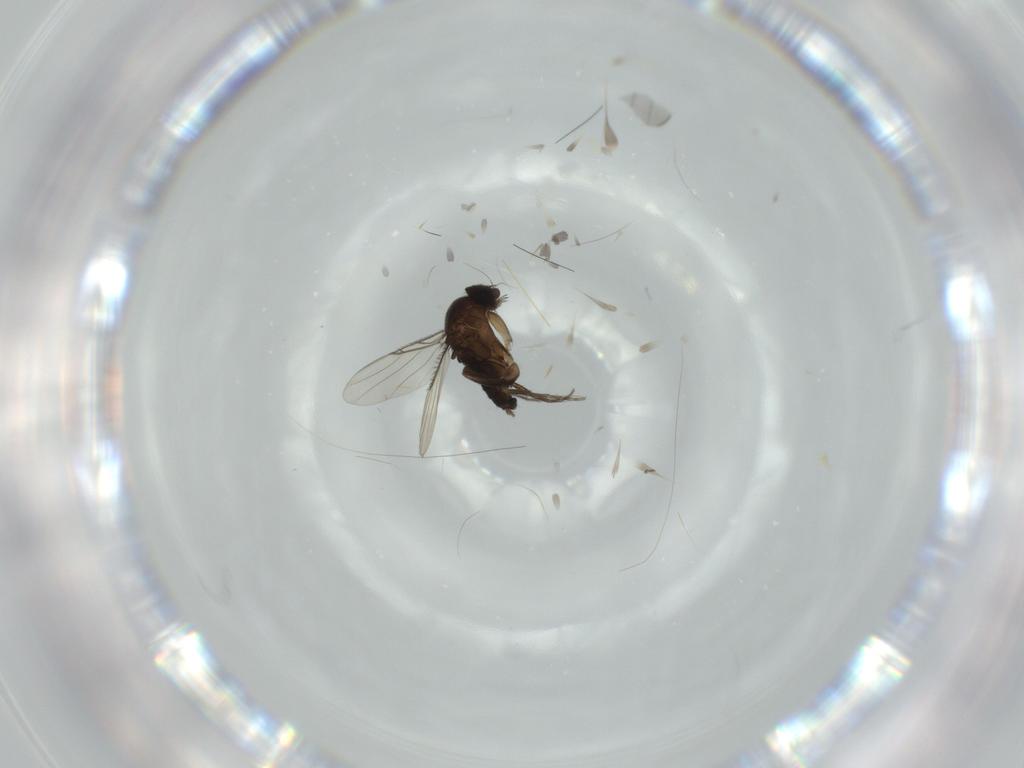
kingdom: Animalia
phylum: Arthropoda
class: Insecta
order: Diptera
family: Phoridae
